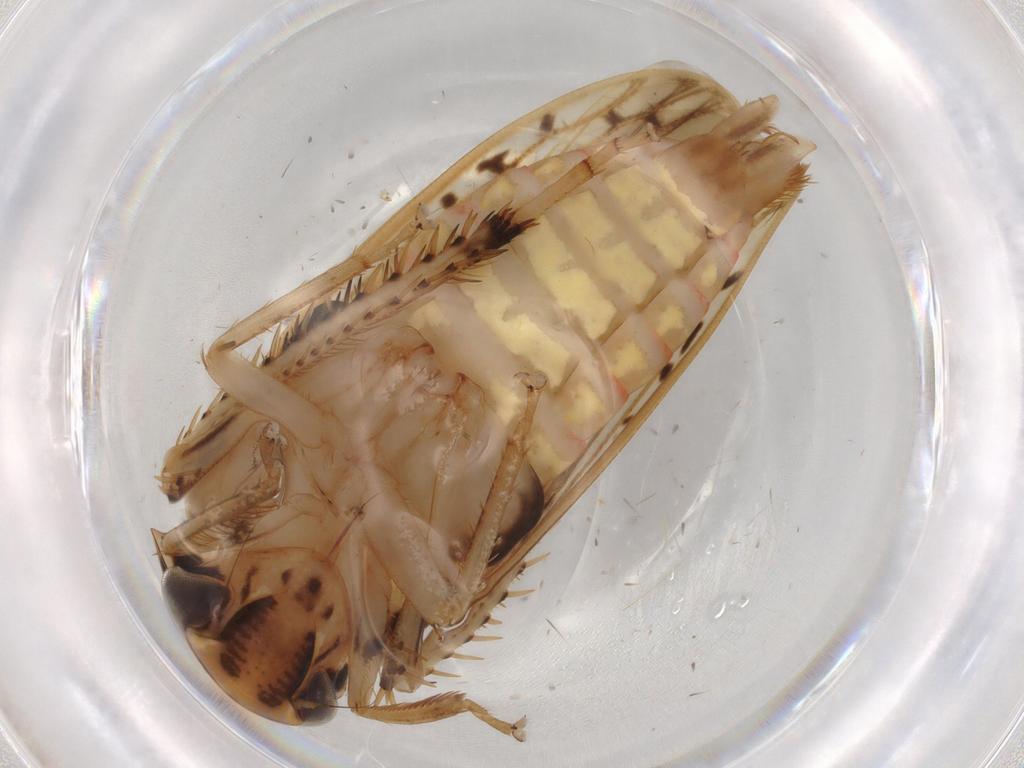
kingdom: Animalia
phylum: Arthropoda
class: Insecta
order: Hemiptera
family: Cicadellidae
